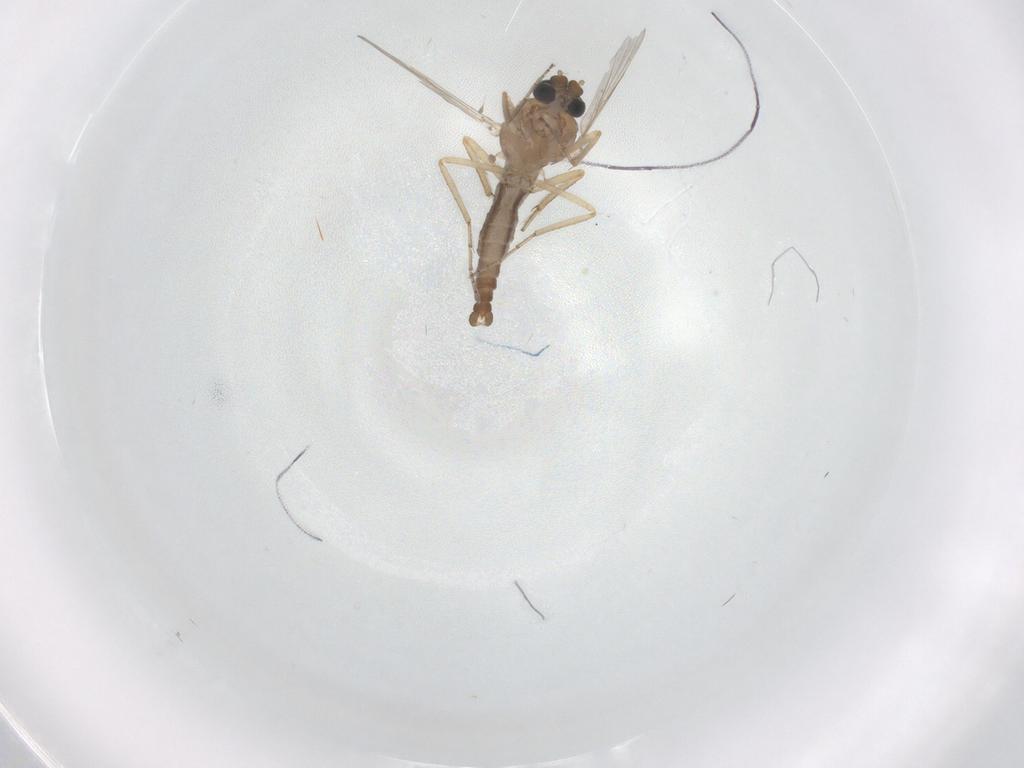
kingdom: Animalia
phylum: Arthropoda
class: Insecta
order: Diptera
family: Ceratopogonidae
